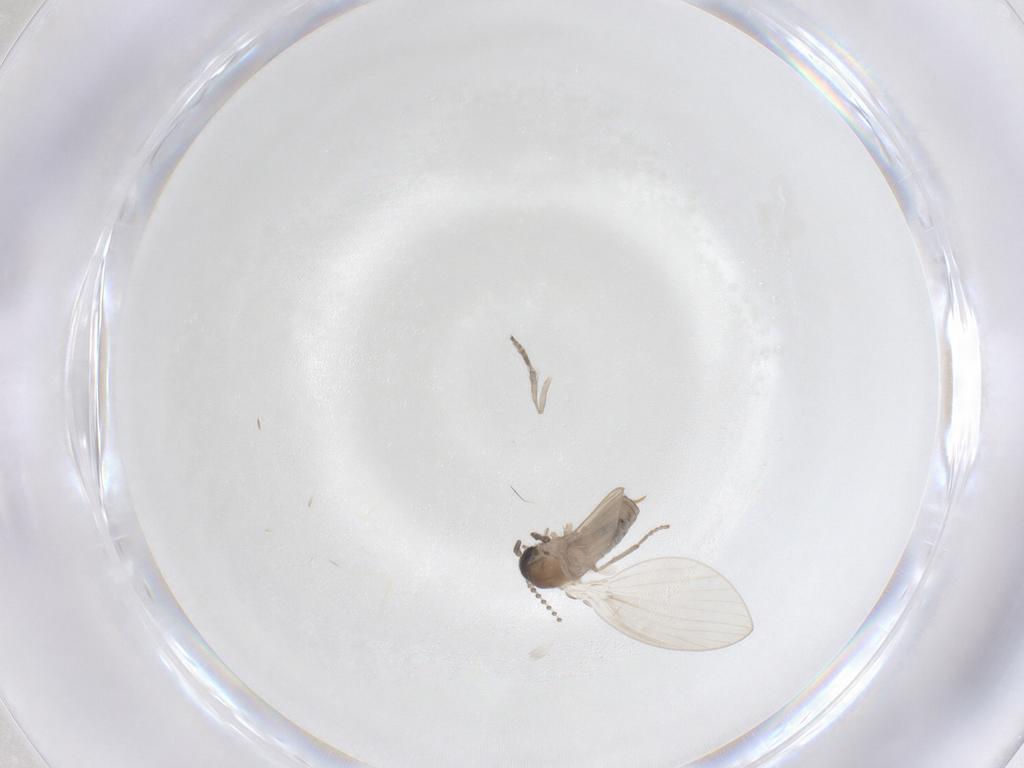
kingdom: Animalia
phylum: Arthropoda
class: Insecta
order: Diptera
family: Psychodidae
